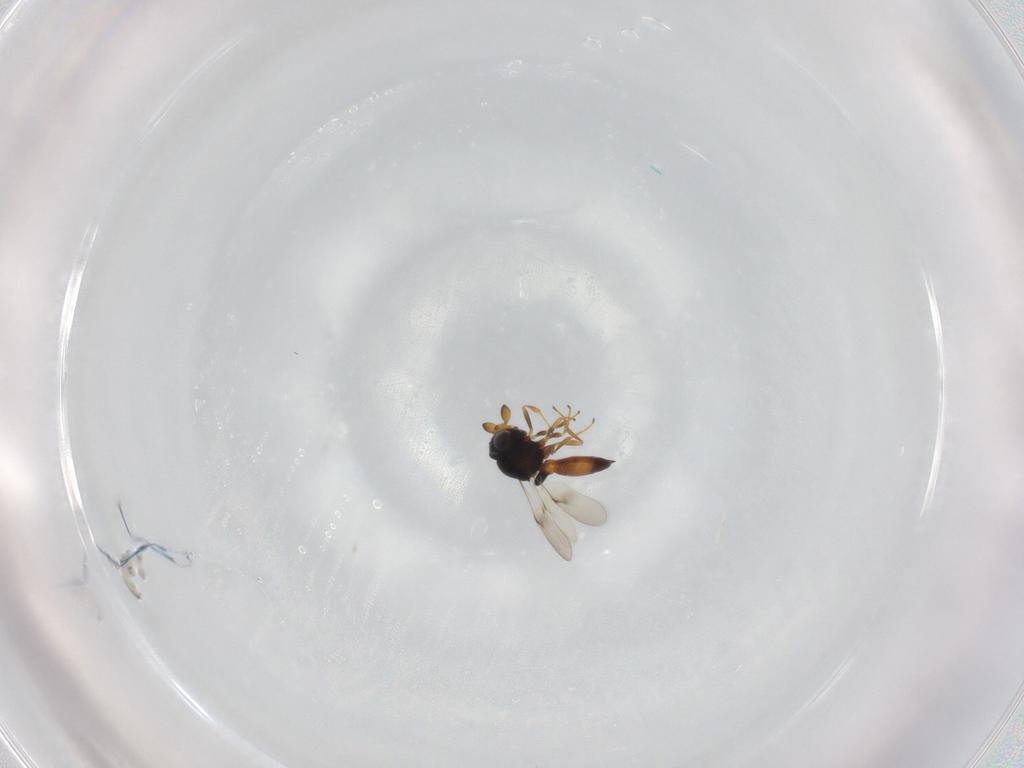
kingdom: Animalia
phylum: Arthropoda
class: Insecta
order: Hymenoptera
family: Scelionidae
